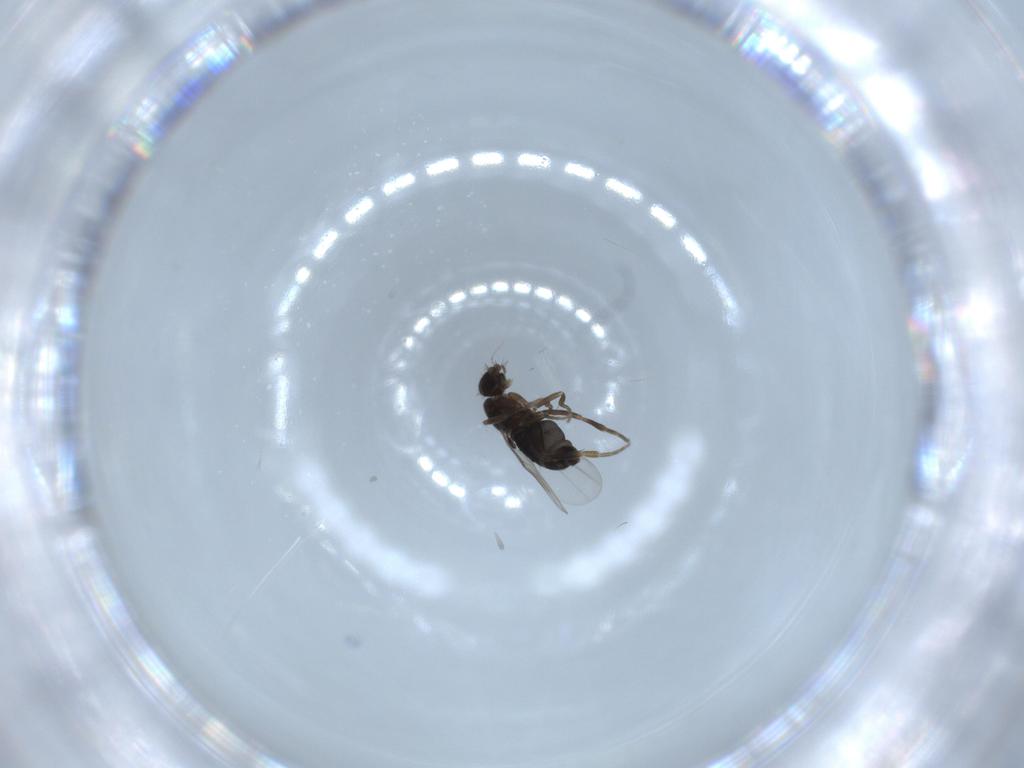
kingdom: Animalia
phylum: Arthropoda
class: Insecta
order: Diptera
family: Phoridae
